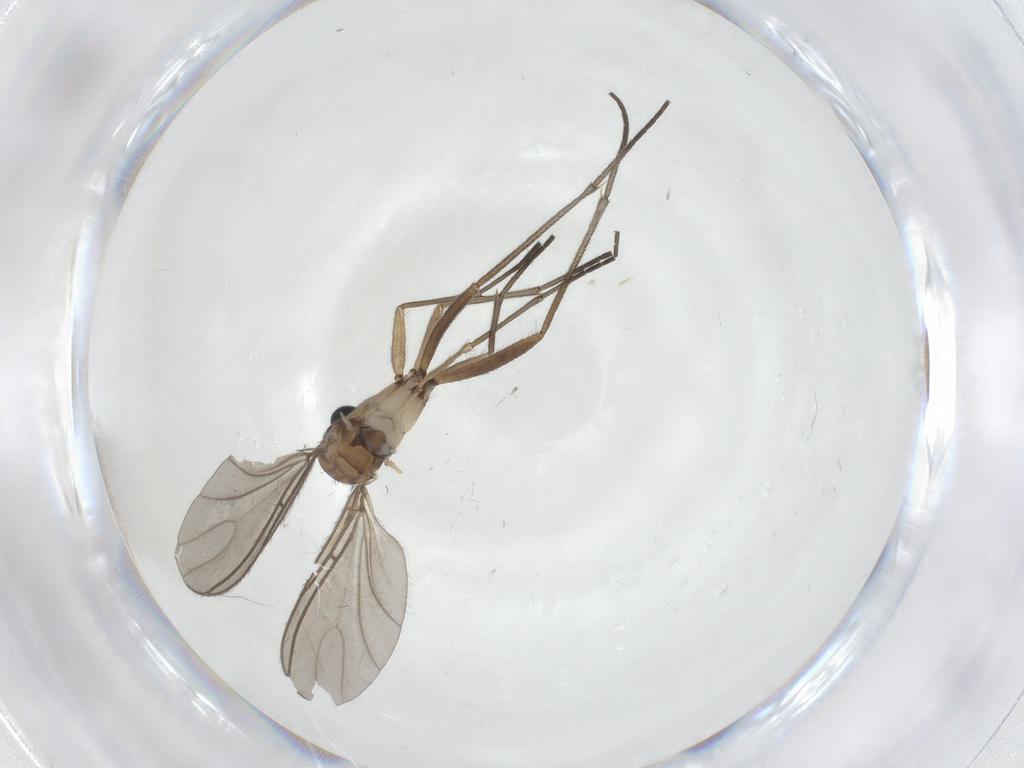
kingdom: Animalia
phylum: Arthropoda
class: Insecta
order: Diptera
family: Sciaridae
